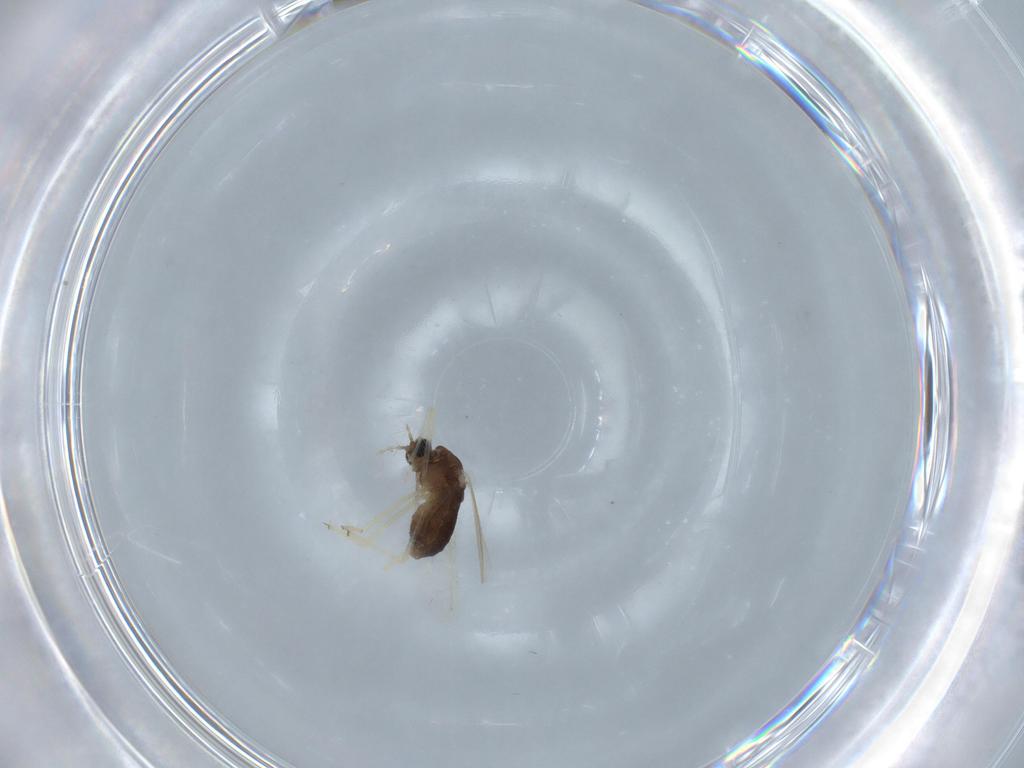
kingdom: Animalia
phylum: Arthropoda
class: Insecta
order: Diptera
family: Chironomidae
